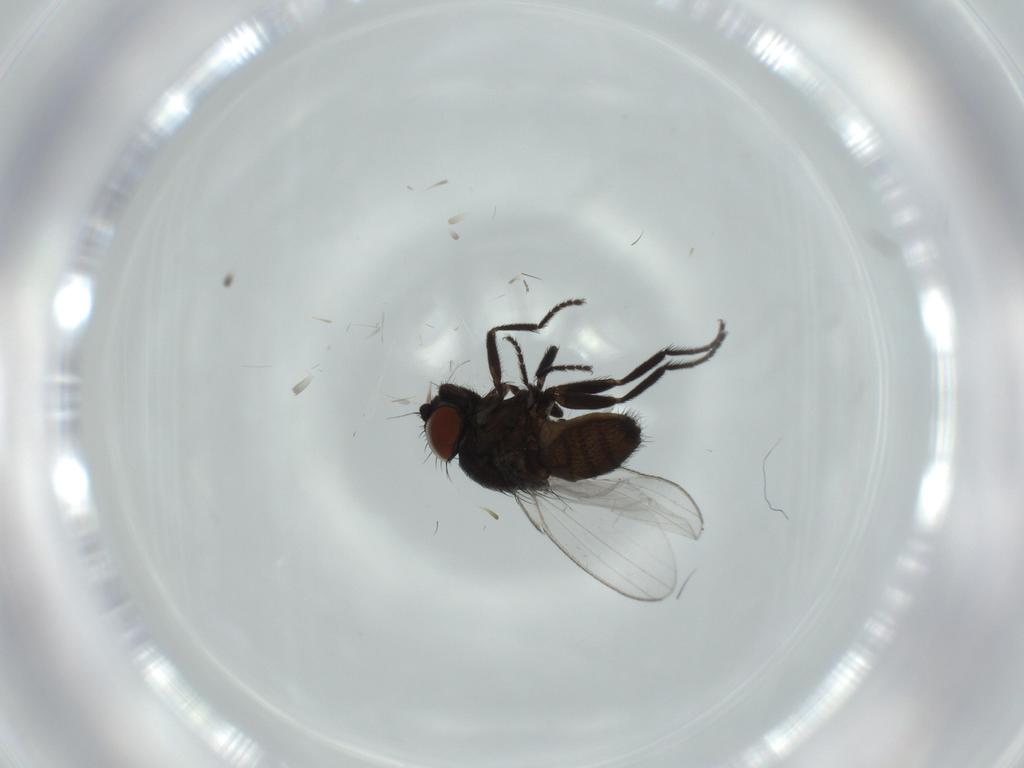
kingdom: Animalia
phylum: Arthropoda
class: Insecta
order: Diptera
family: Milichiidae
